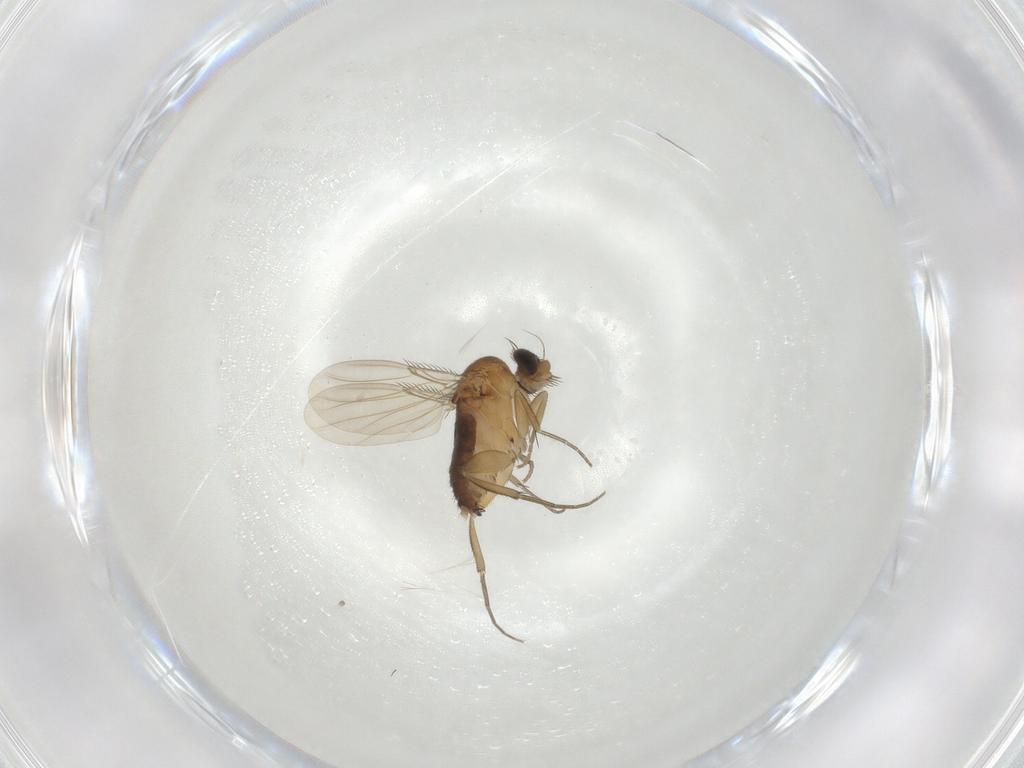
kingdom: Animalia
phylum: Arthropoda
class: Insecta
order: Diptera
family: Phoridae
